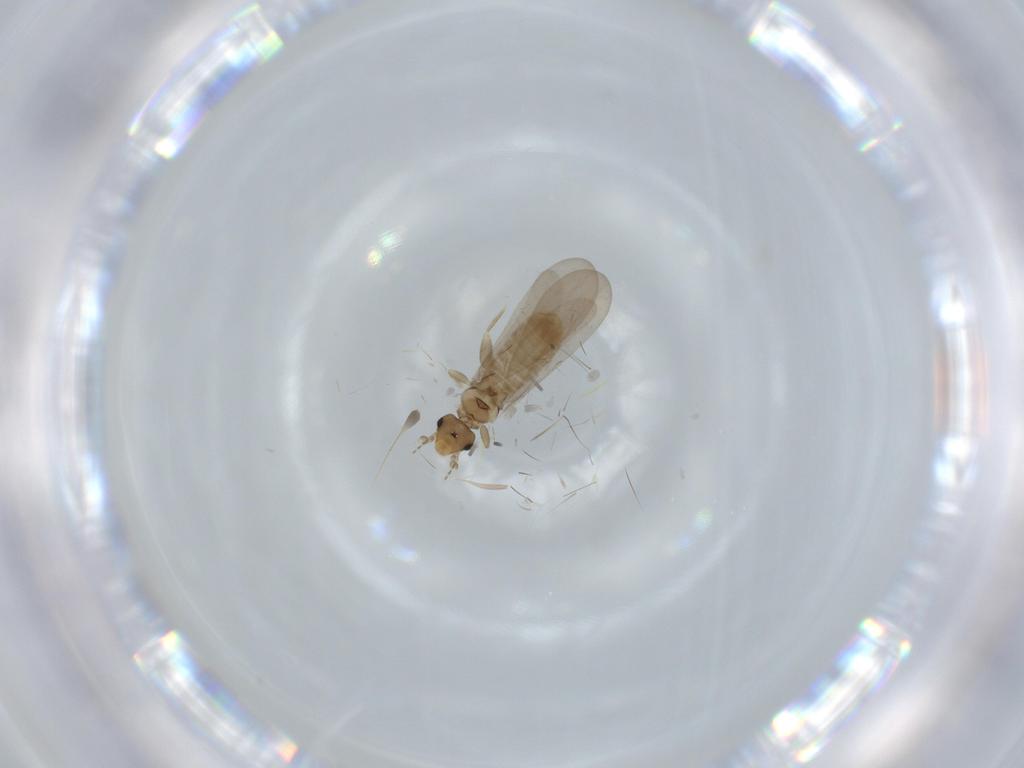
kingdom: Animalia
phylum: Arthropoda
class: Insecta
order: Psocodea
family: Liposcelididae
